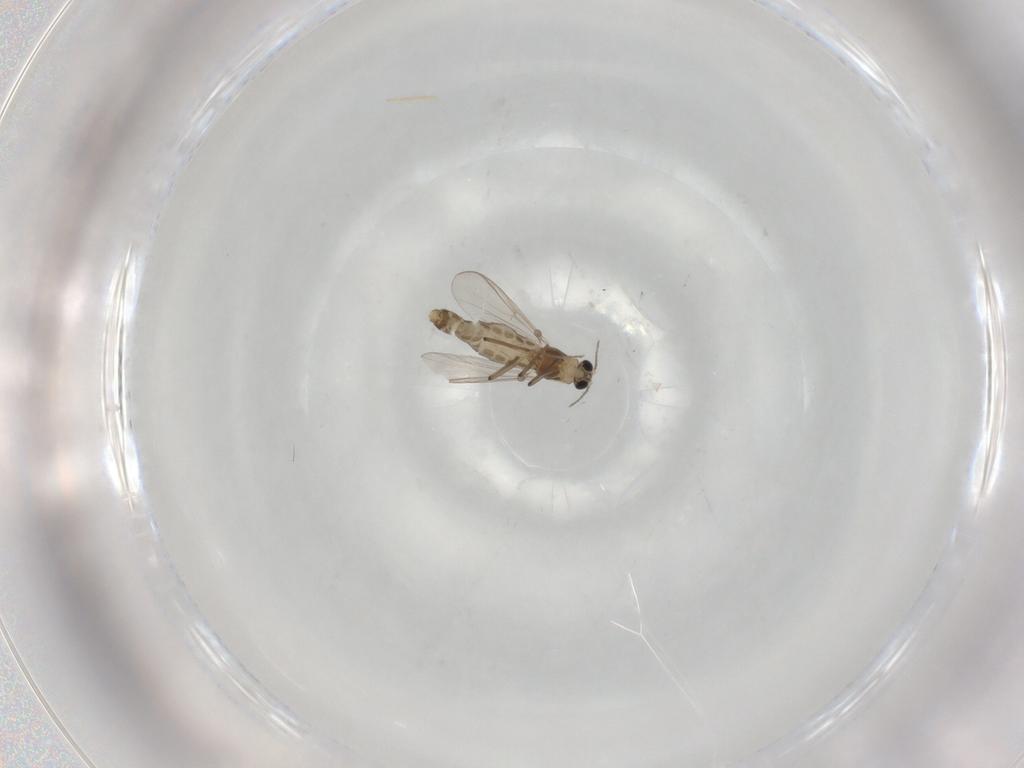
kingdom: Animalia
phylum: Arthropoda
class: Insecta
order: Diptera
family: Chironomidae
